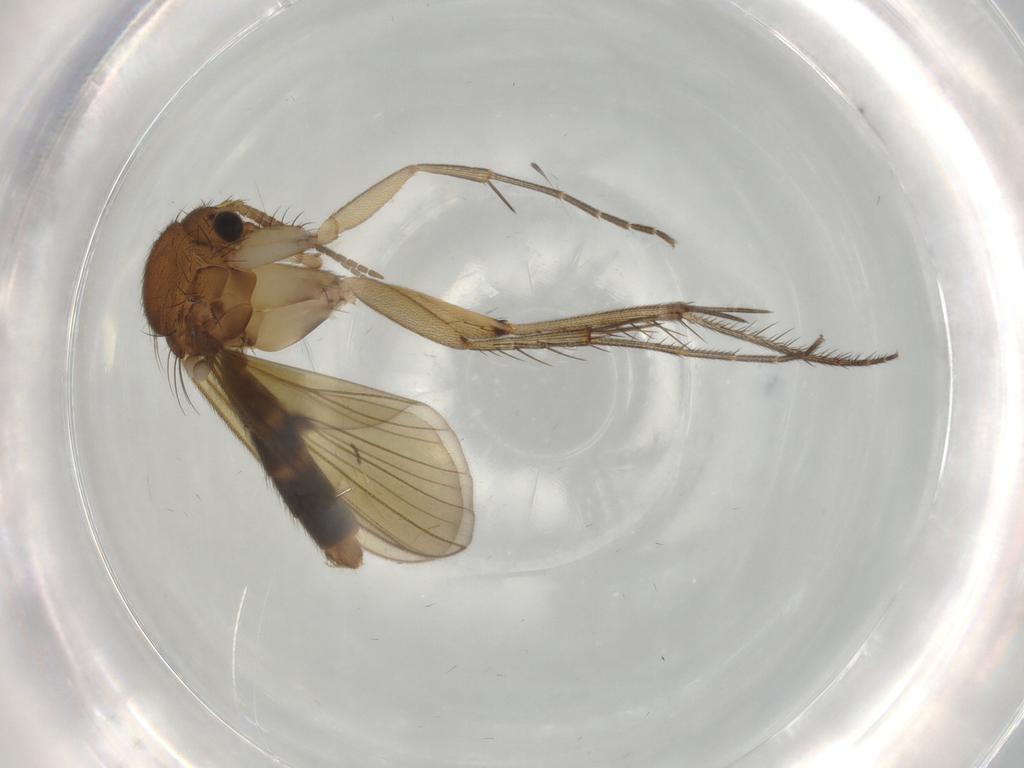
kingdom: Animalia
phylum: Arthropoda
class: Insecta
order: Diptera
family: Mycetophilidae
